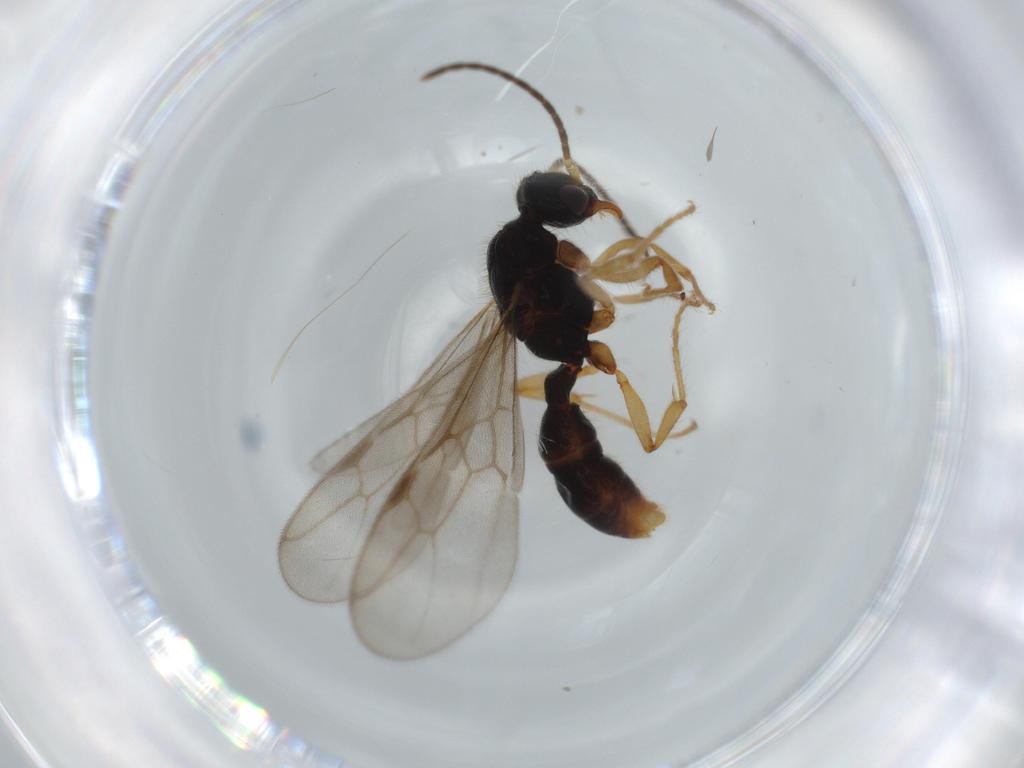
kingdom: Animalia
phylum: Arthropoda
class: Insecta
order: Hymenoptera
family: Formicidae
